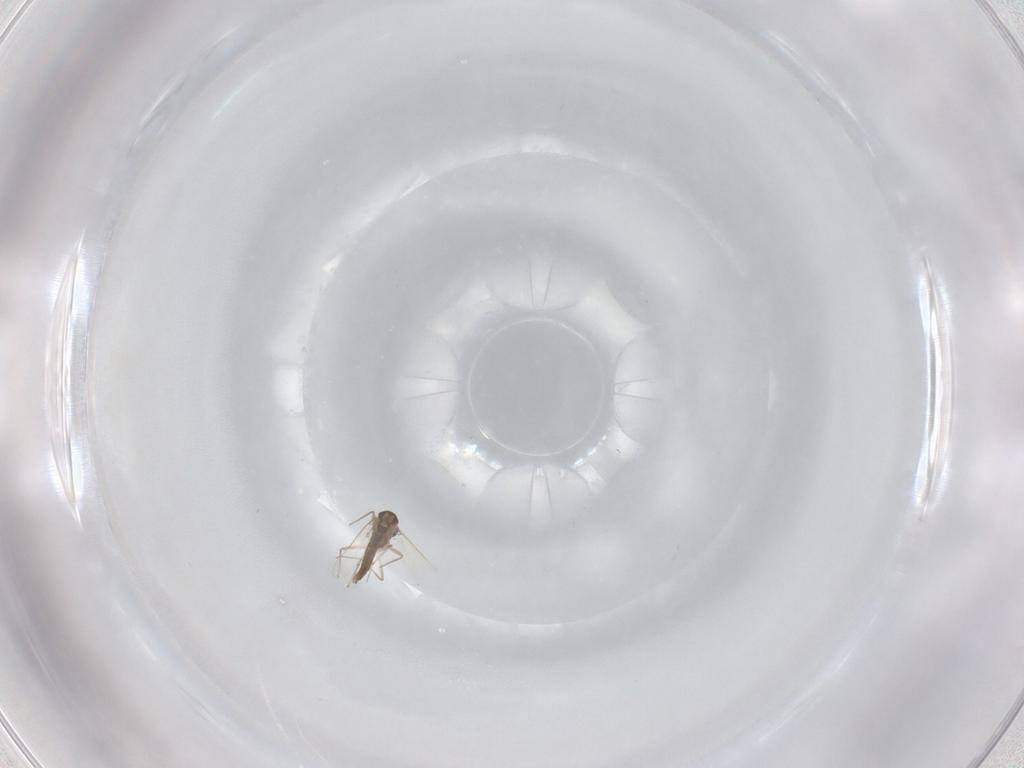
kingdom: Animalia
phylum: Arthropoda
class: Insecta
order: Diptera
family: Chironomidae
